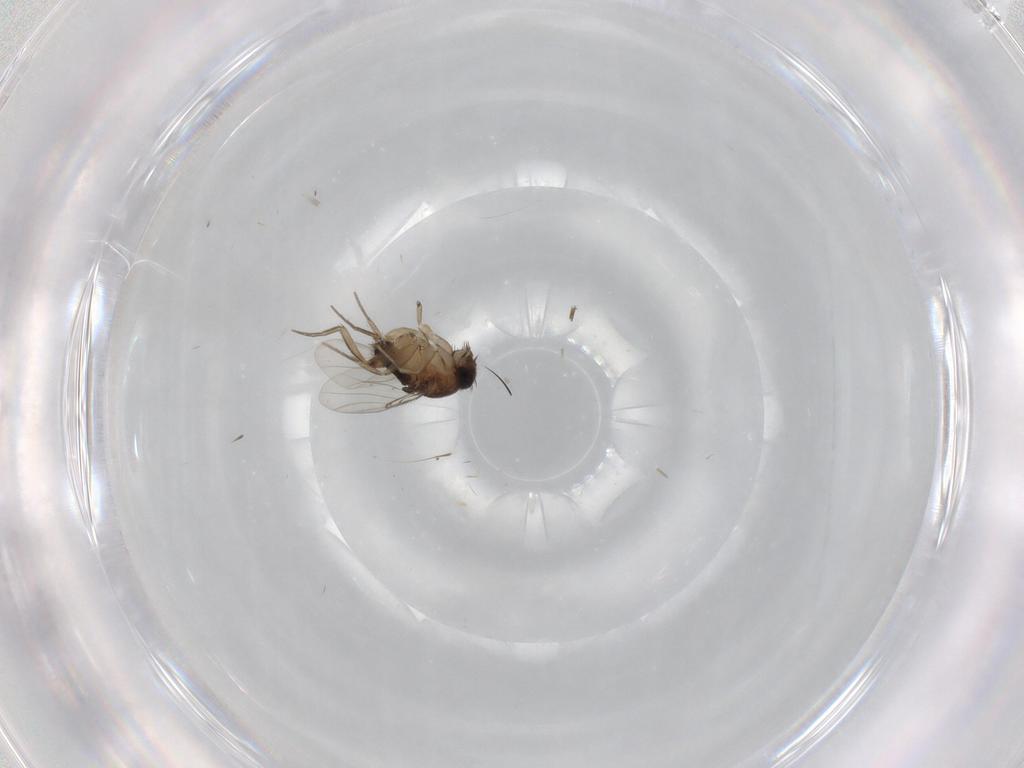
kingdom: Animalia
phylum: Arthropoda
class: Insecta
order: Diptera
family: Phoridae
